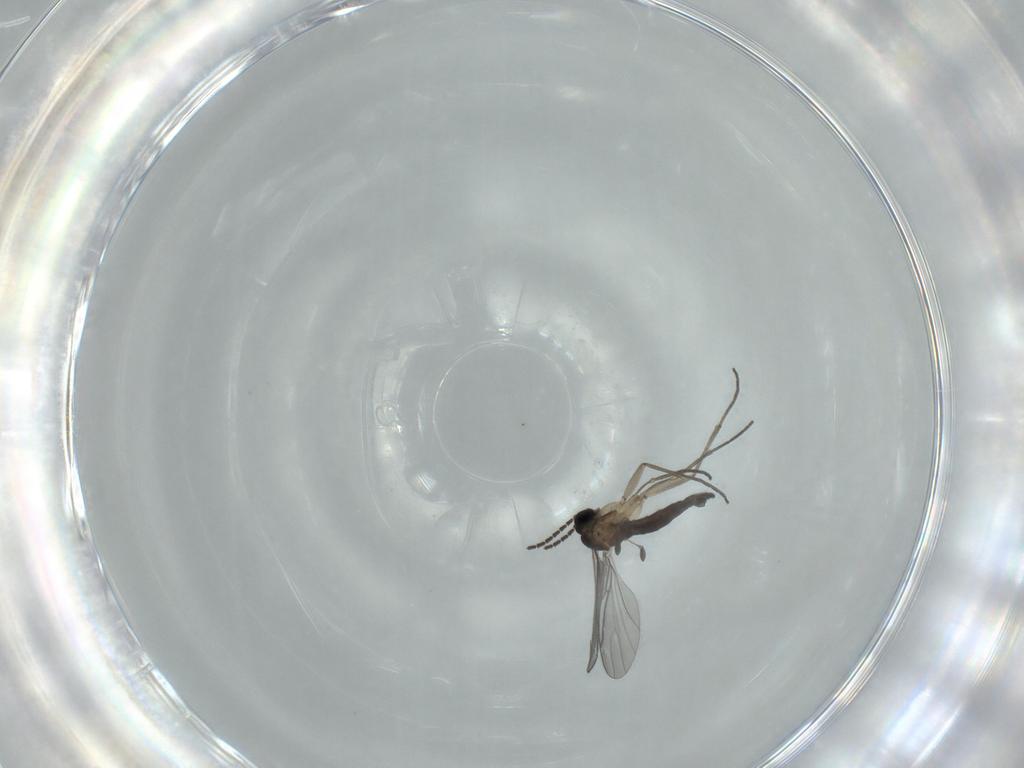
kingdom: Animalia
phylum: Arthropoda
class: Insecta
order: Diptera
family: Sciaridae
